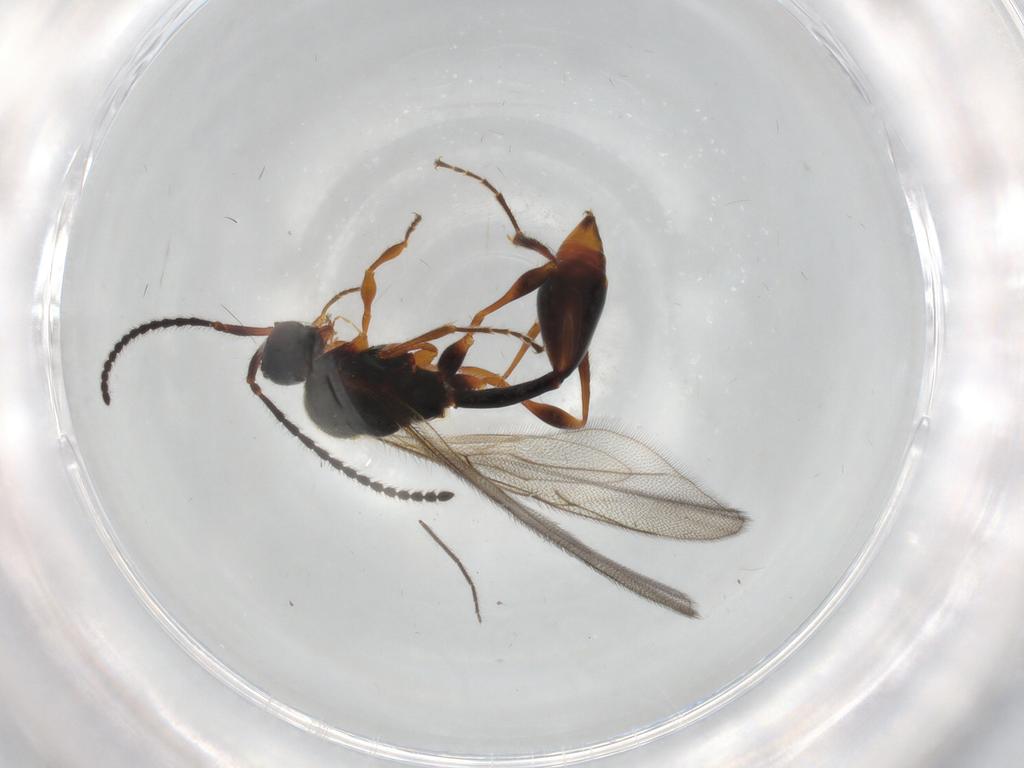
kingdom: Animalia
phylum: Arthropoda
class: Insecta
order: Hymenoptera
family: Diapriidae
